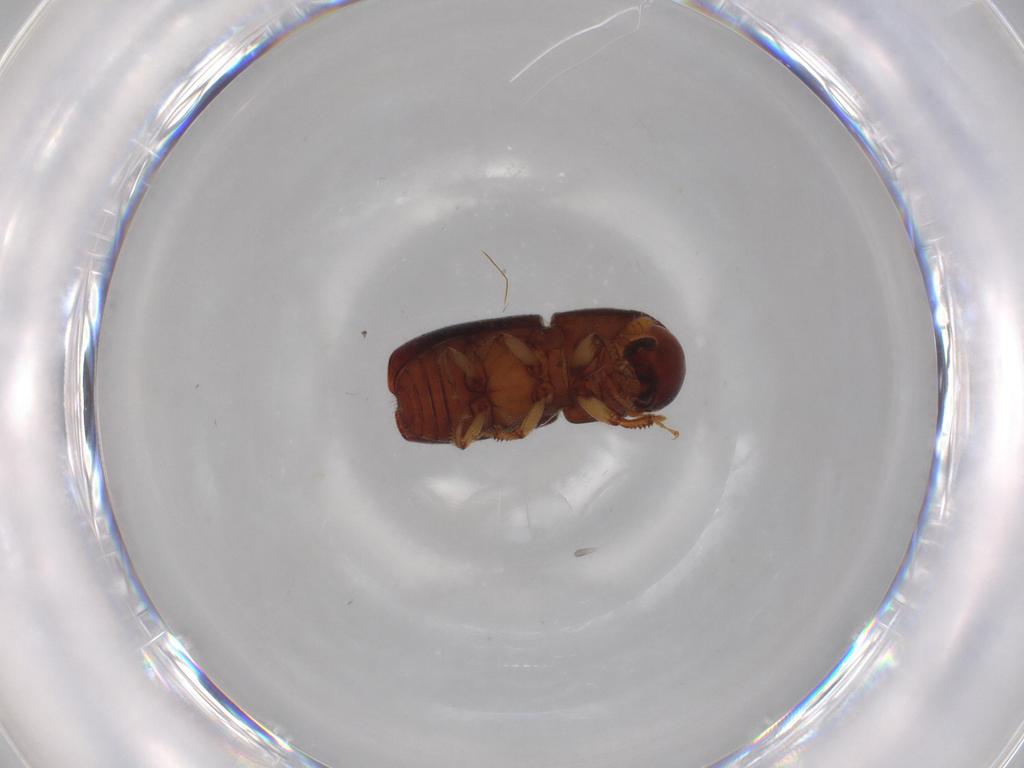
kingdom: Animalia
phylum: Arthropoda
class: Insecta
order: Coleoptera
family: Curculionidae
